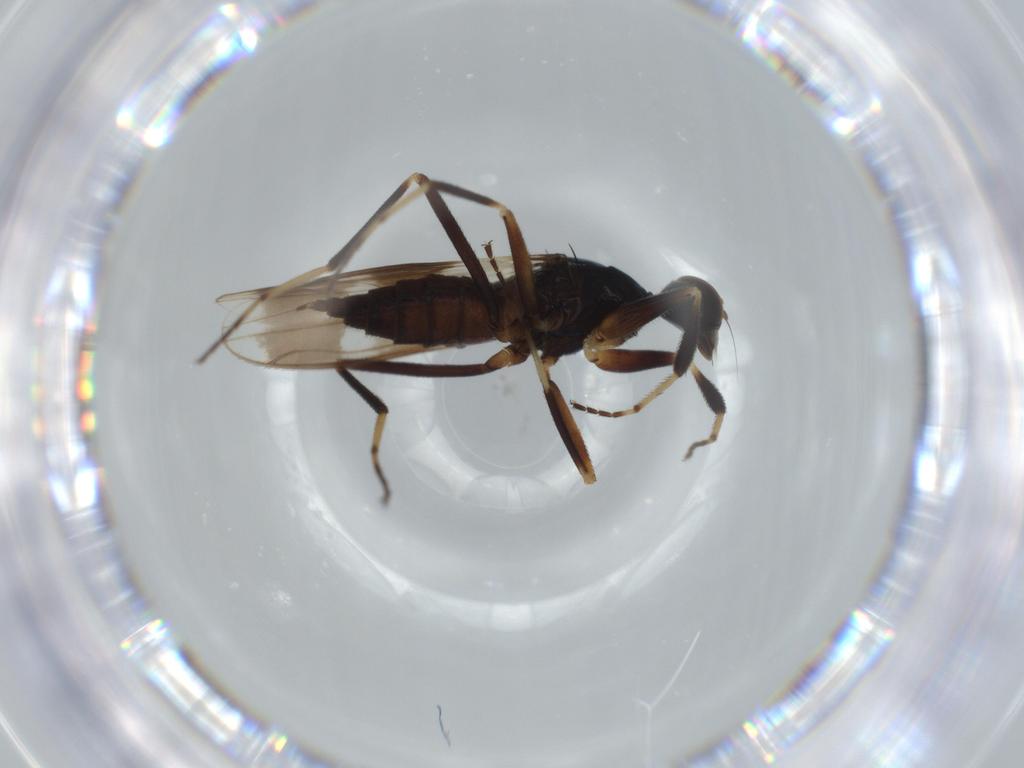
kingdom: Animalia
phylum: Arthropoda
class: Insecta
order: Diptera
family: Hybotidae
